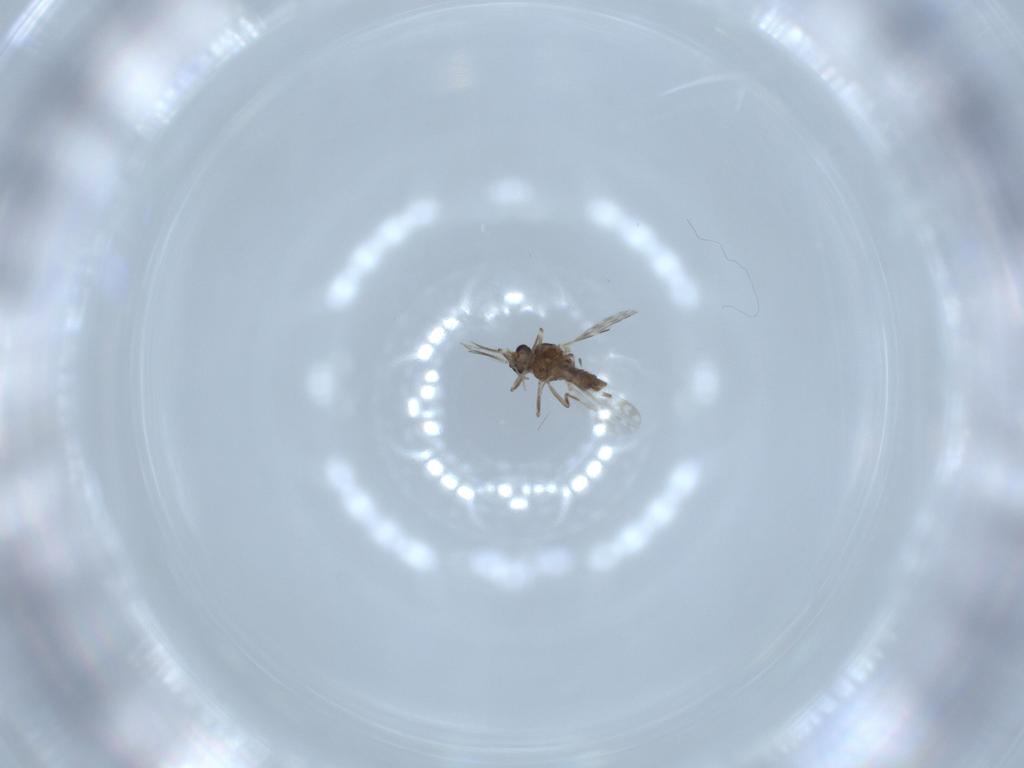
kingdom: Animalia
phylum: Arthropoda
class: Insecta
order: Diptera
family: Ceratopogonidae
